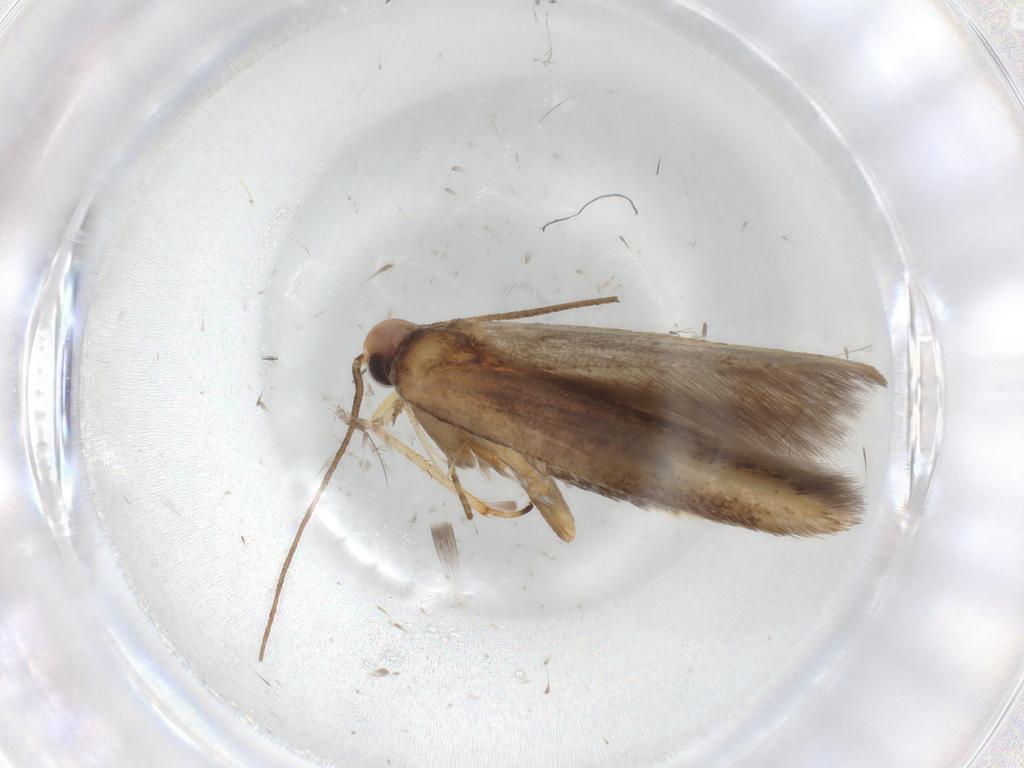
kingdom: Animalia
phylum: Arthropoda
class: Insecta
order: Lepidoptera
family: Batrachedridae
